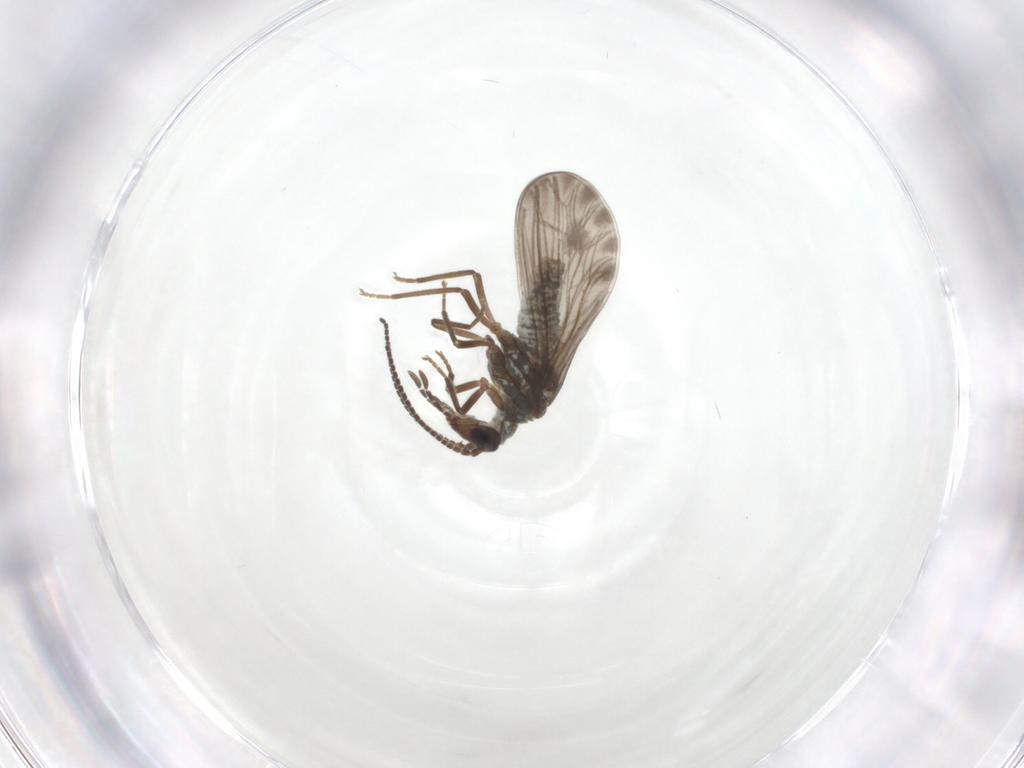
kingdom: Animalia
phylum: Arthropoda
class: Insecta
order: Neuroptera
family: Coniopterygidae
